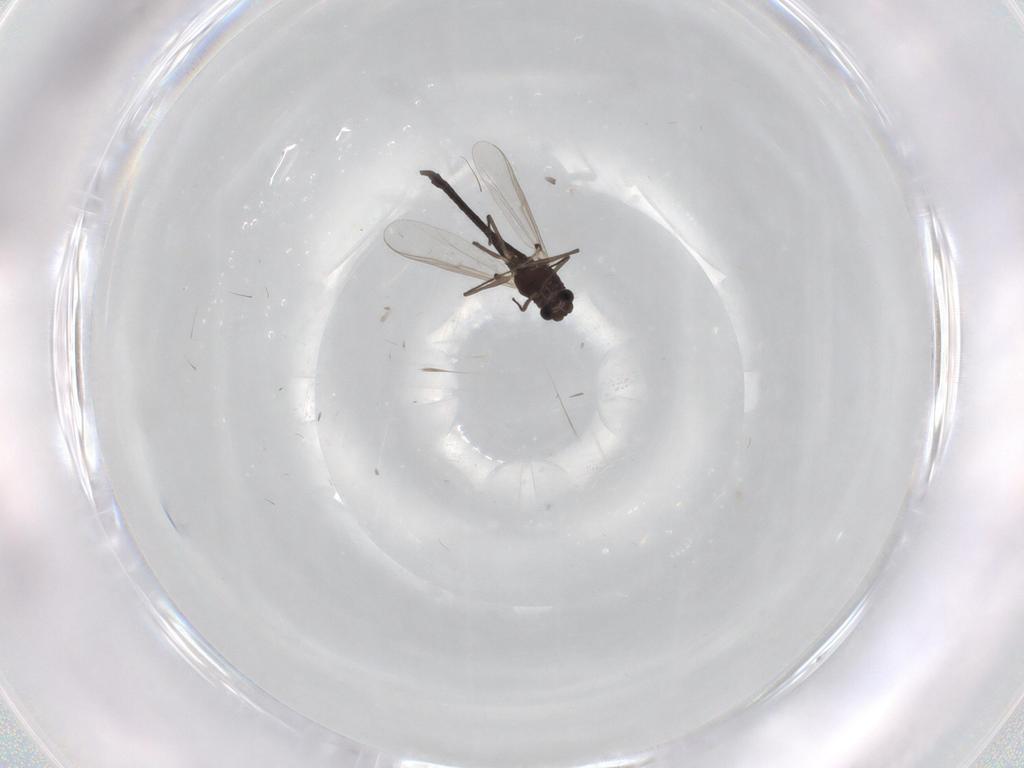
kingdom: Animalia
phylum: Arthropoda
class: Insecta
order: Diptera
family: Chironomidae
